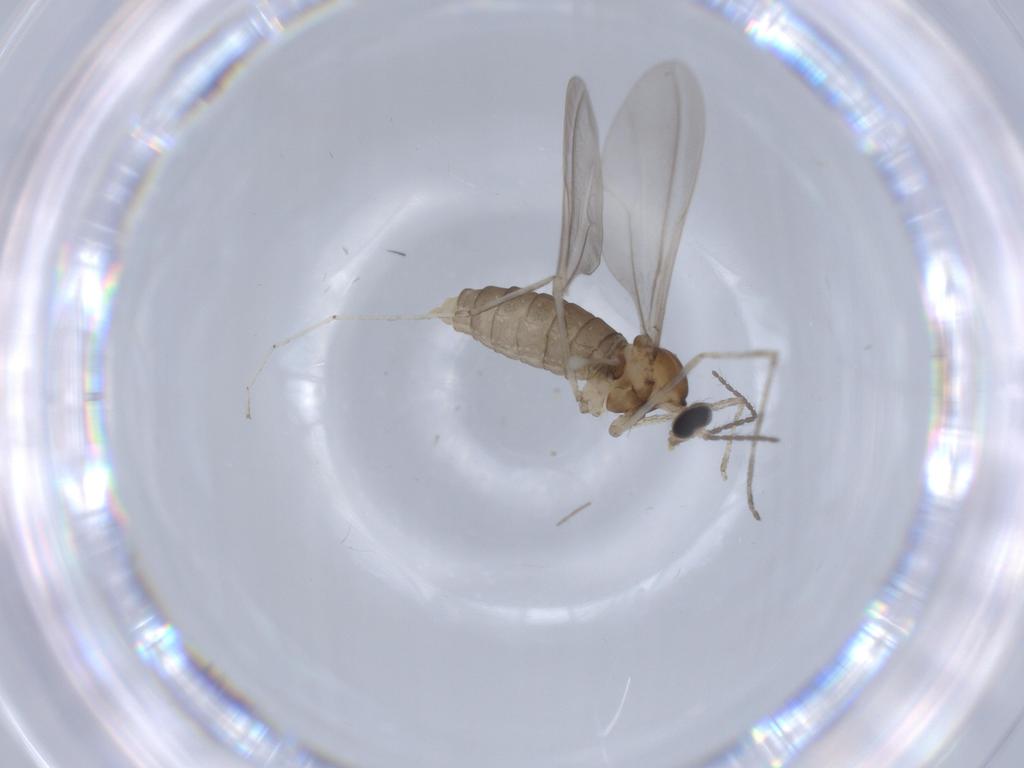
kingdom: Animalia
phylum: Arthropoda
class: Insecta
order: Diptera
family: Cecidomyiidae
